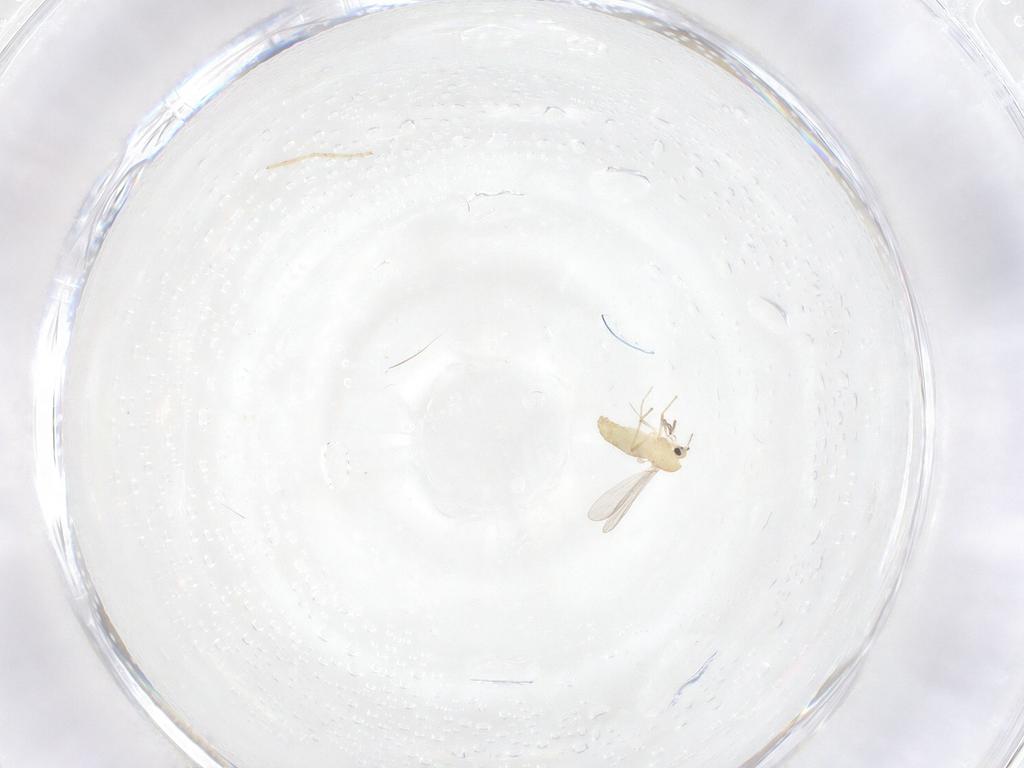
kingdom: Animalia
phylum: Arthropoda
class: Insecta
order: Diptera
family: Chironomidae
